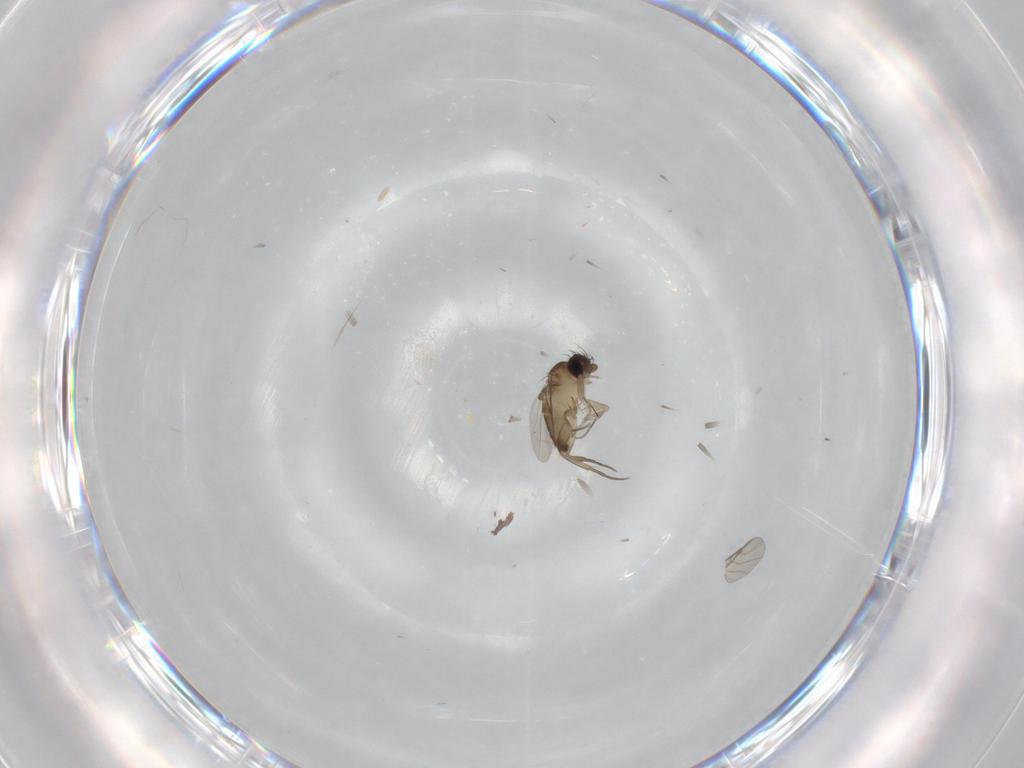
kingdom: Animalia
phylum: Arthropoda
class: Insecta
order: Diptera
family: Phoridae
